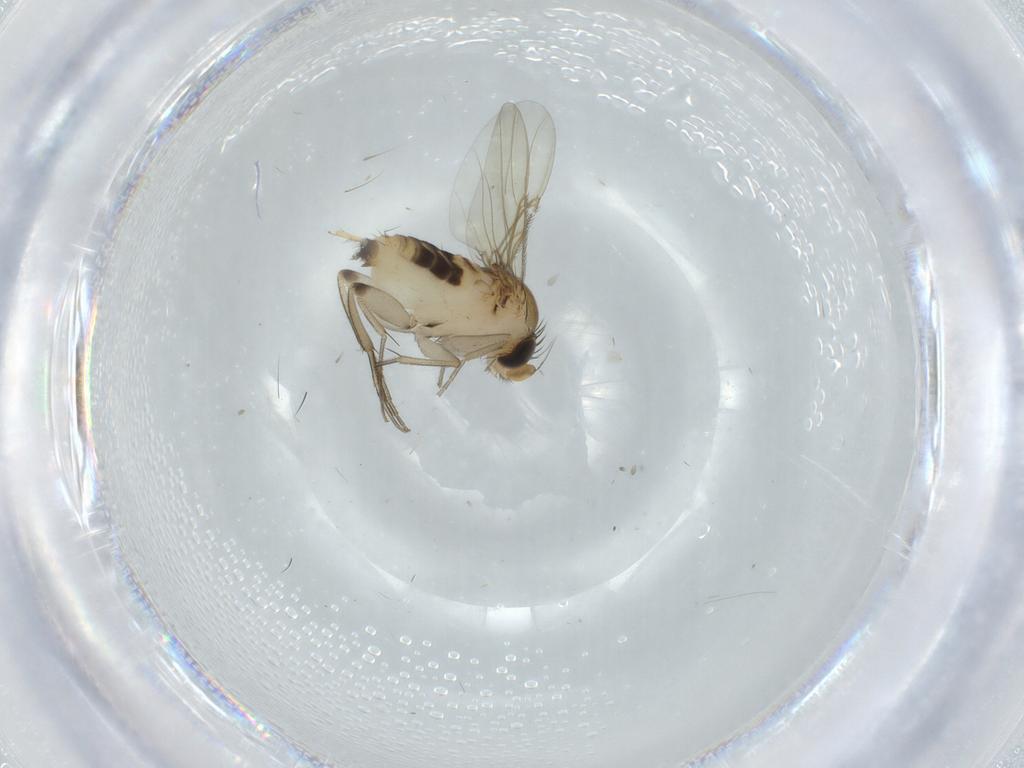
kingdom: Animalia
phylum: Arthropoda
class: Insecta
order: Diptera
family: Phoridae
